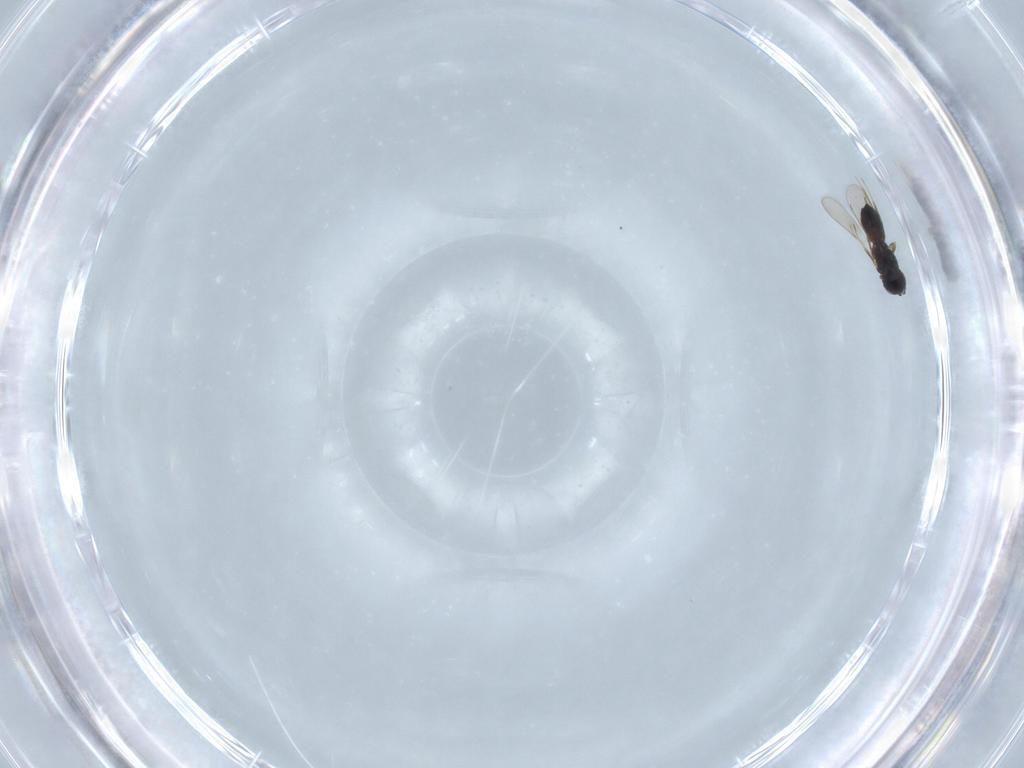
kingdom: Animalia
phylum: Arthropoda
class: Insecta
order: Hymenoptera
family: Scelionidae
